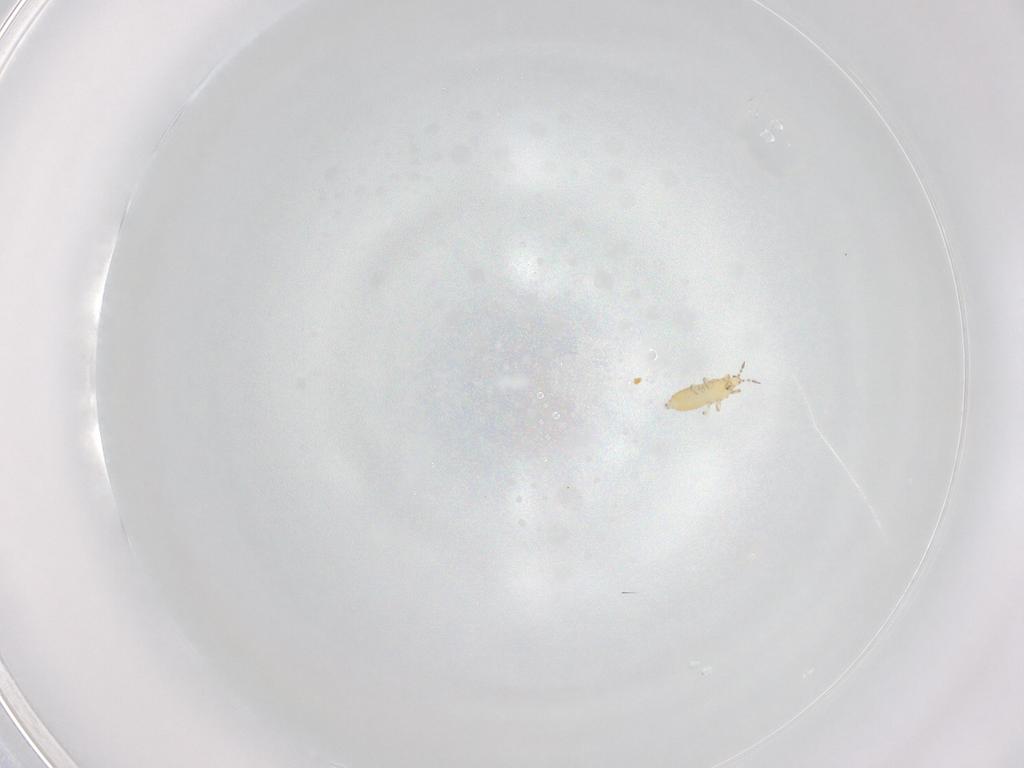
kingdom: Animalia
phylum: Arthropoda
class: Insecta
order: Thysanoptera
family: Thripidae
